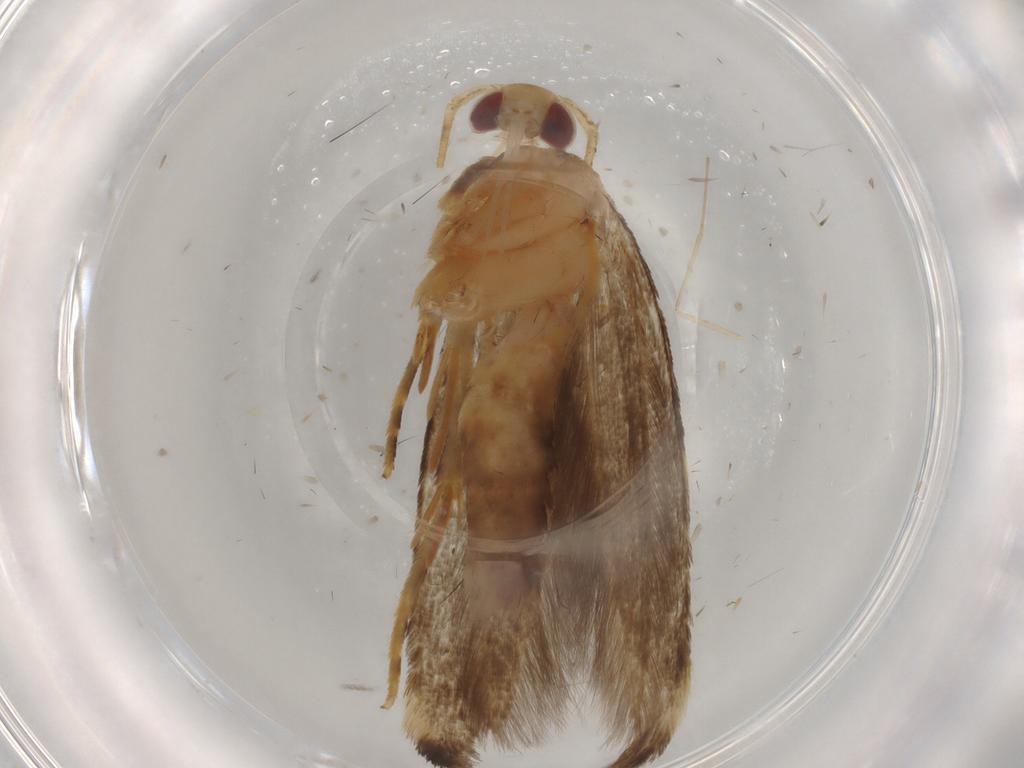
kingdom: Animalia
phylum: Arthropoda
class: Insecta
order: Lepidoptera
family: Cosmopterigidae
